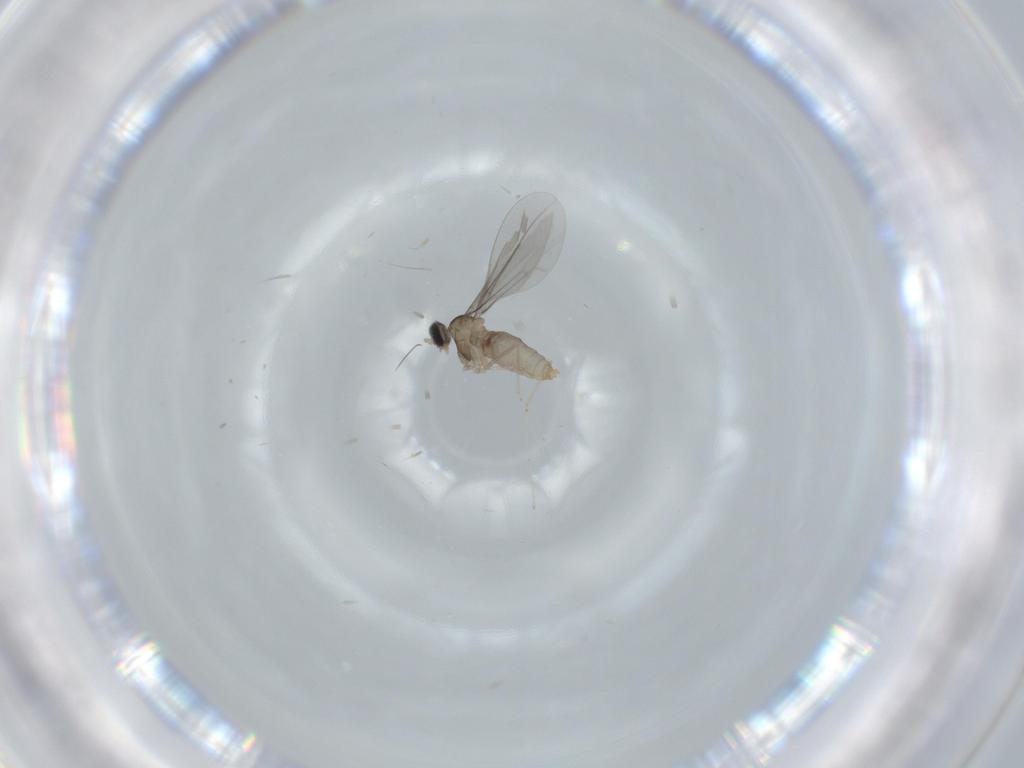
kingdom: Animalia
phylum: Arthropoda
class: Insecta
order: Diptera
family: Cecidomyiidae
